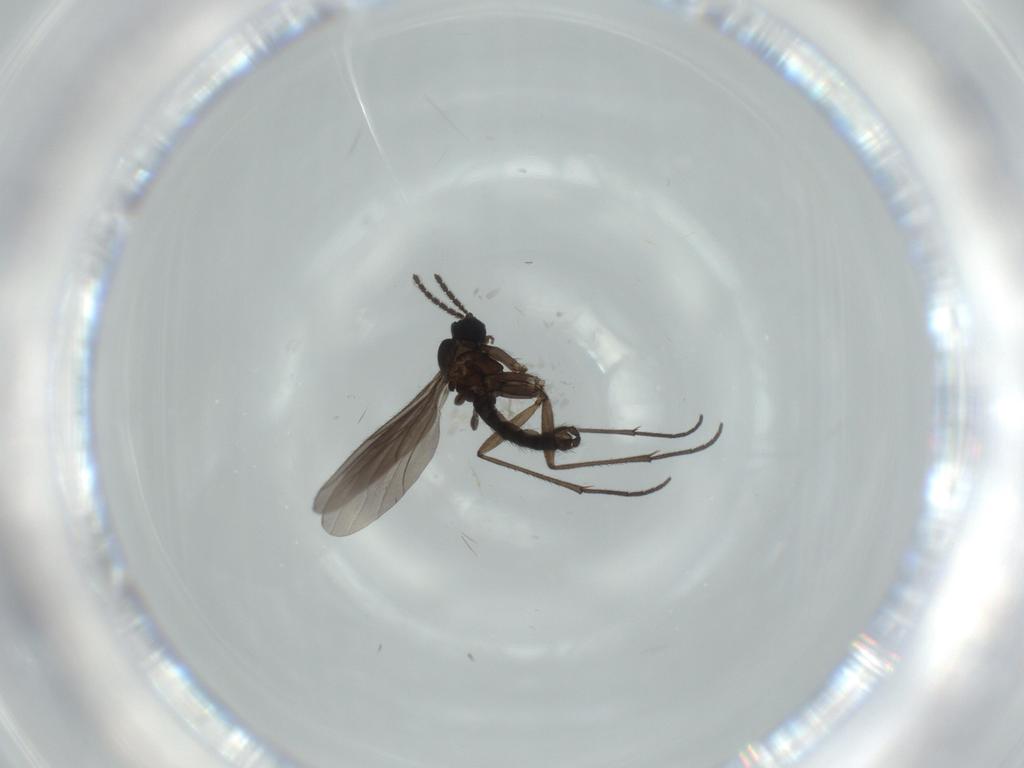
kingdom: Animalia
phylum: Arthropoda
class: Insecta
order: Diptera
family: Sciaridae
